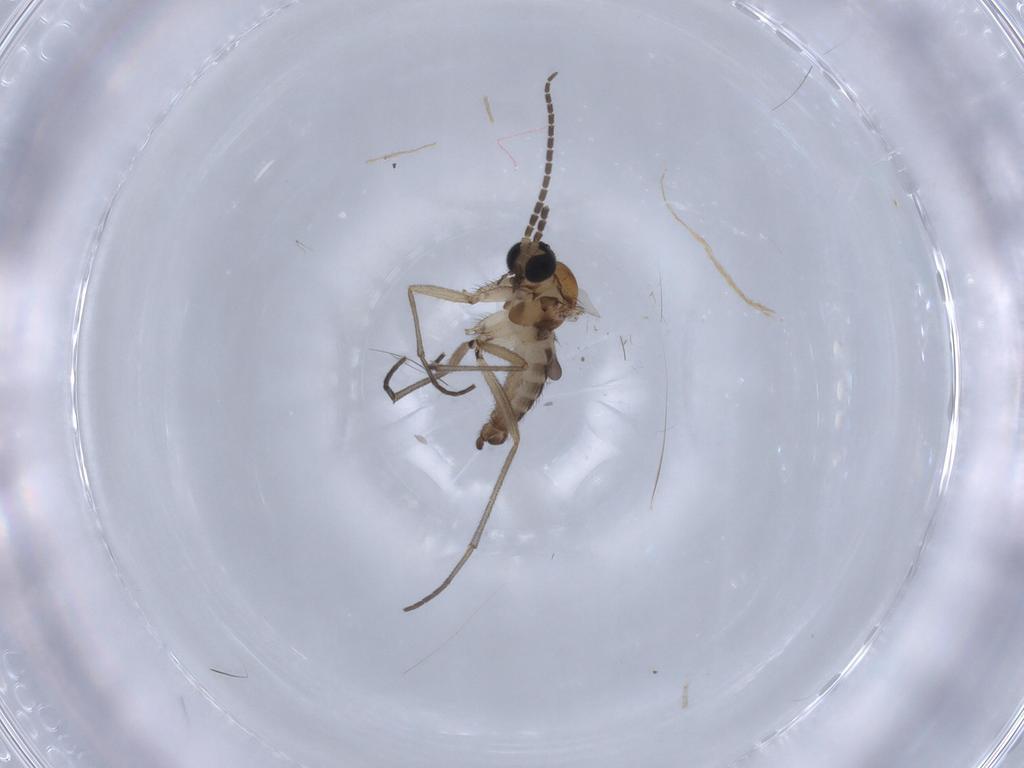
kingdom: Animalia
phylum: Arthropoda
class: Insecta
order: Diptera
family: Sciaridae
